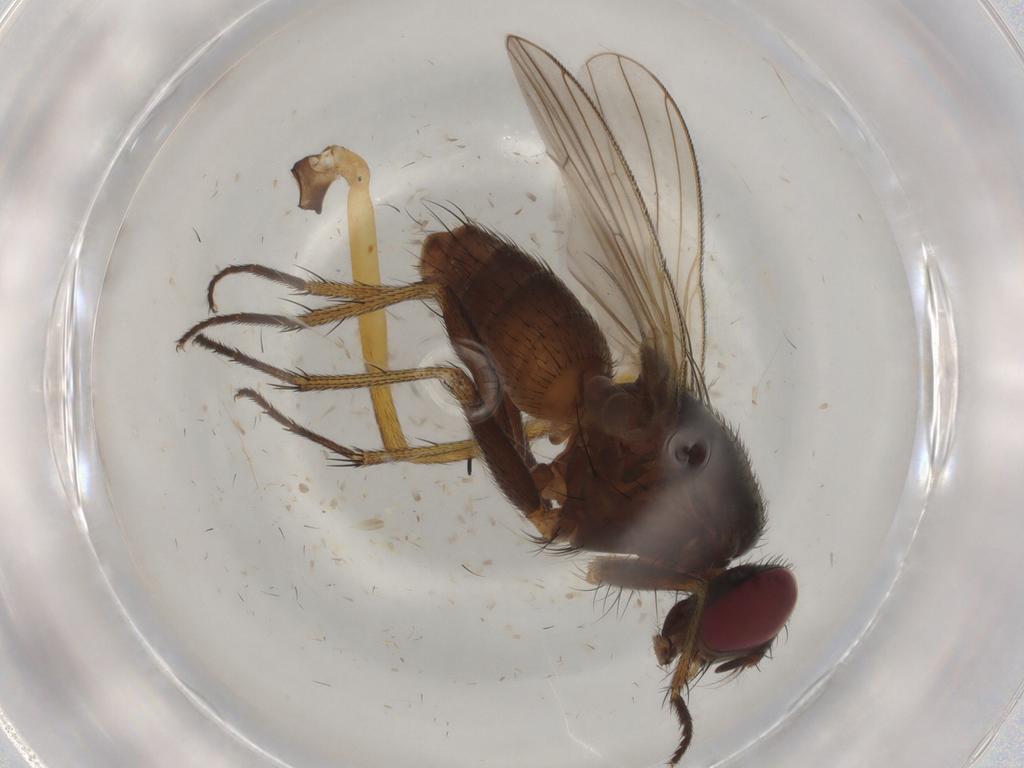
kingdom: Animalia
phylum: Arthropoda
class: Insecta
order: Diptera
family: Muscidae
